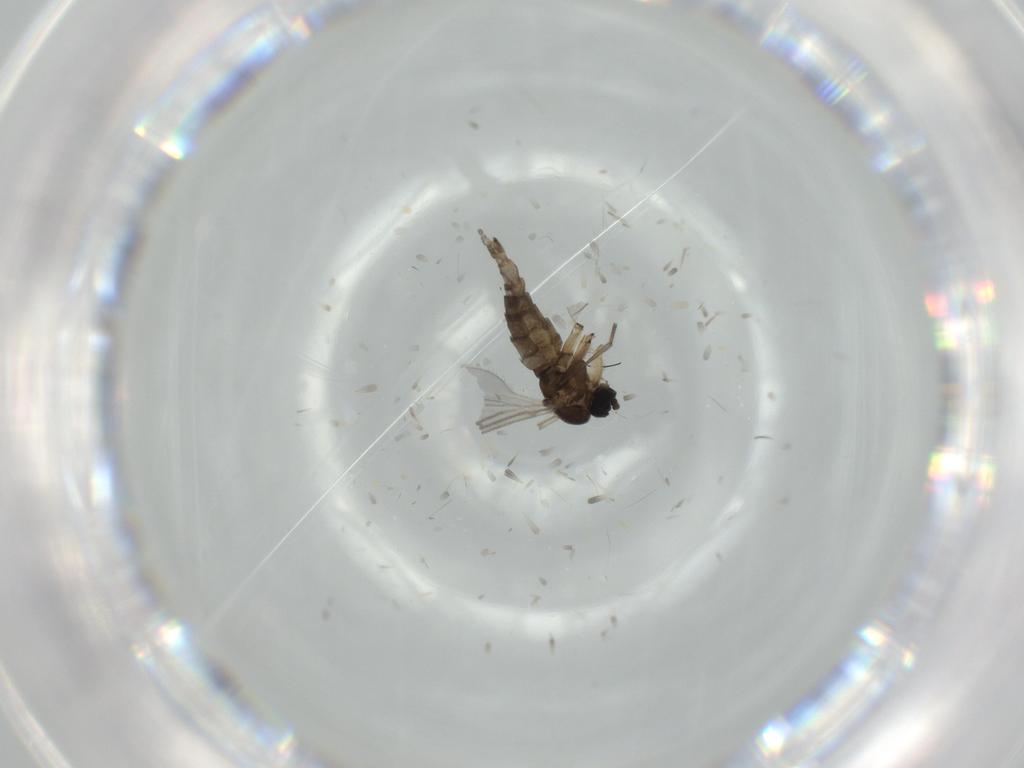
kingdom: Animalia
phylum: Arthropoda
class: Insecta
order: Diptera
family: Sciaridae
